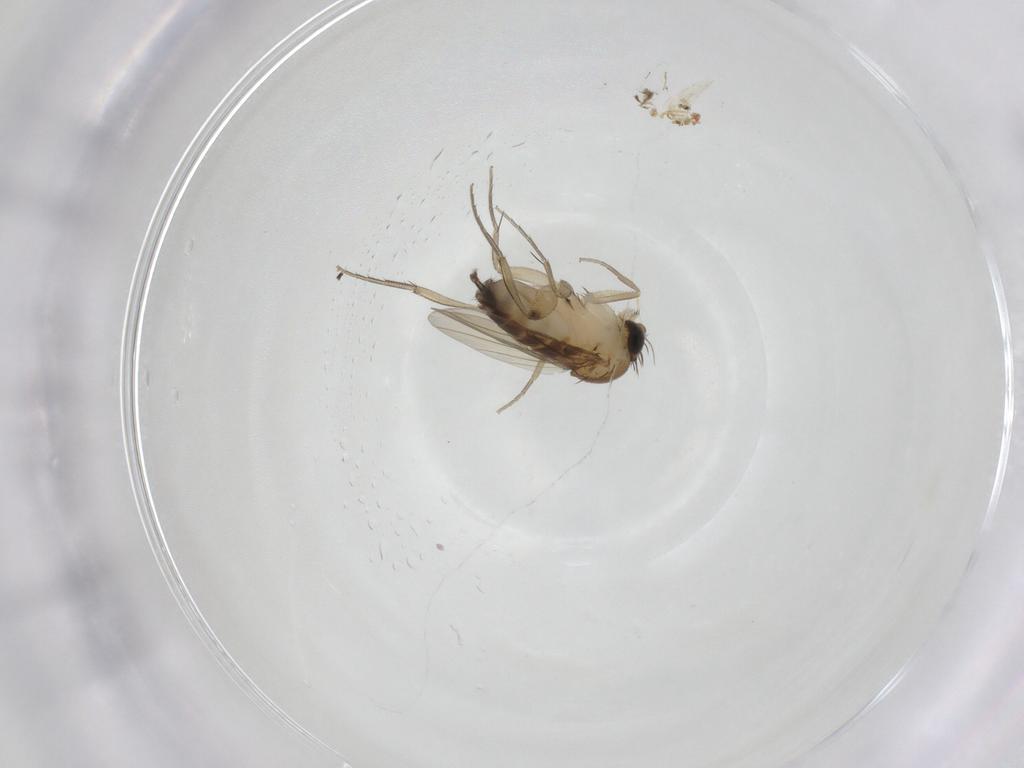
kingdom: Animalia
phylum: Arthropoda
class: Insecta
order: Diptera
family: Phoridae
